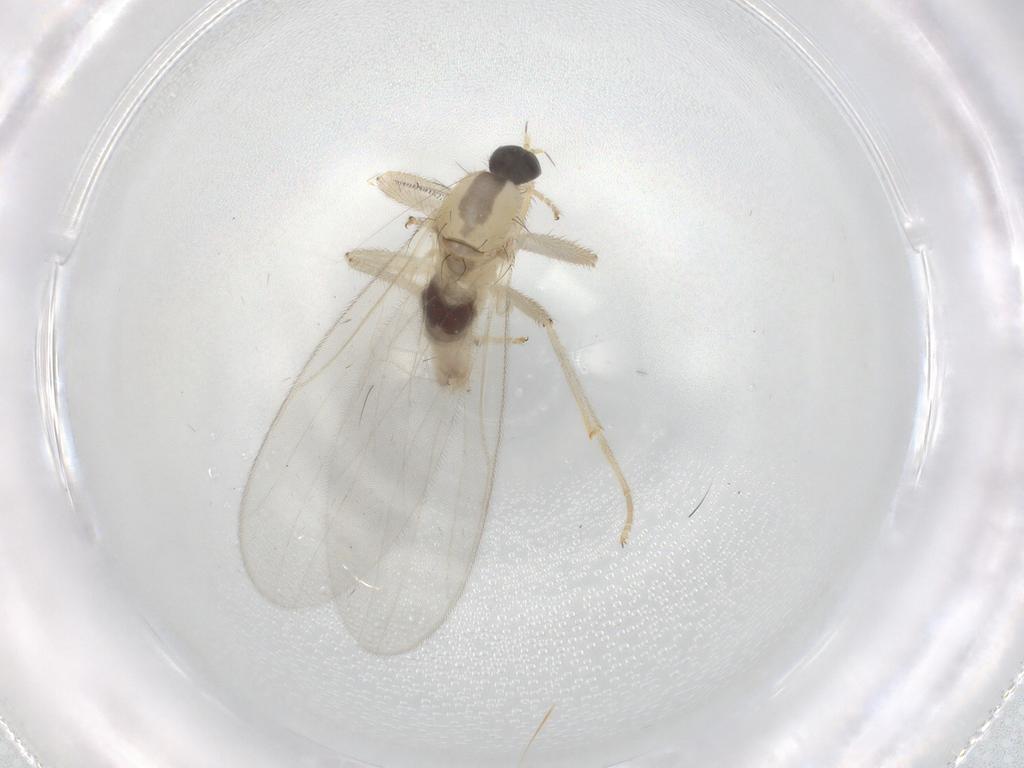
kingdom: Animalia
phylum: Arthropoda
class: Insecta
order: Diptera
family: Hybotidae
